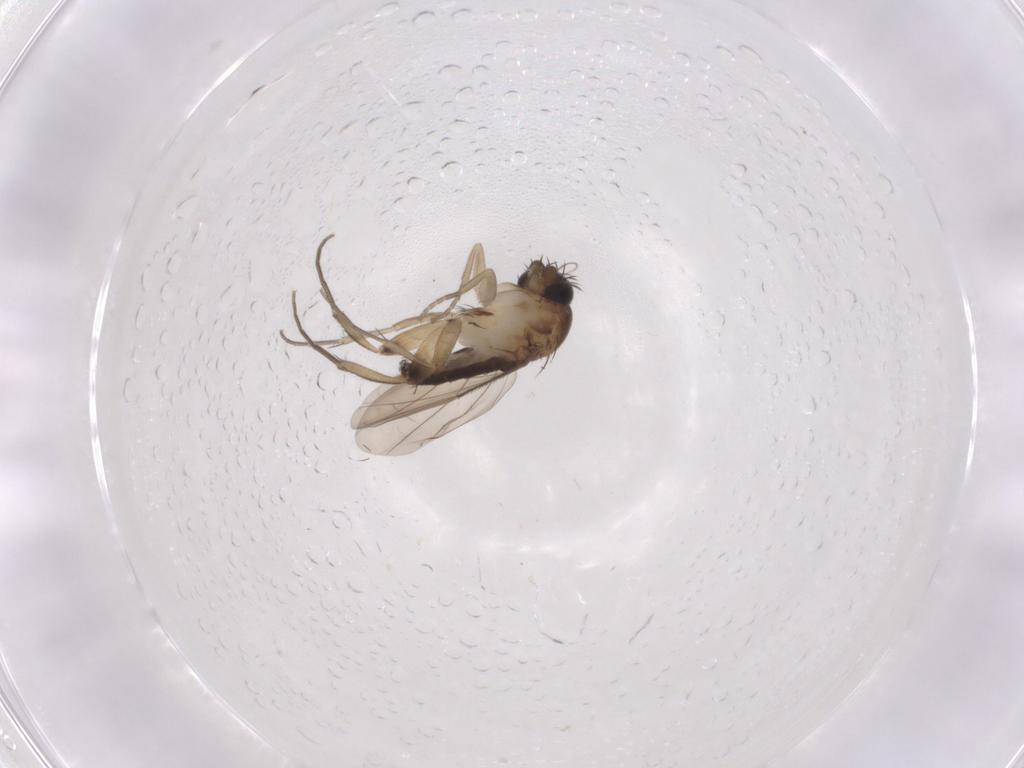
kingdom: Animalia
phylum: Arthropoda
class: Insecta
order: Diptera
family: Phoridae
